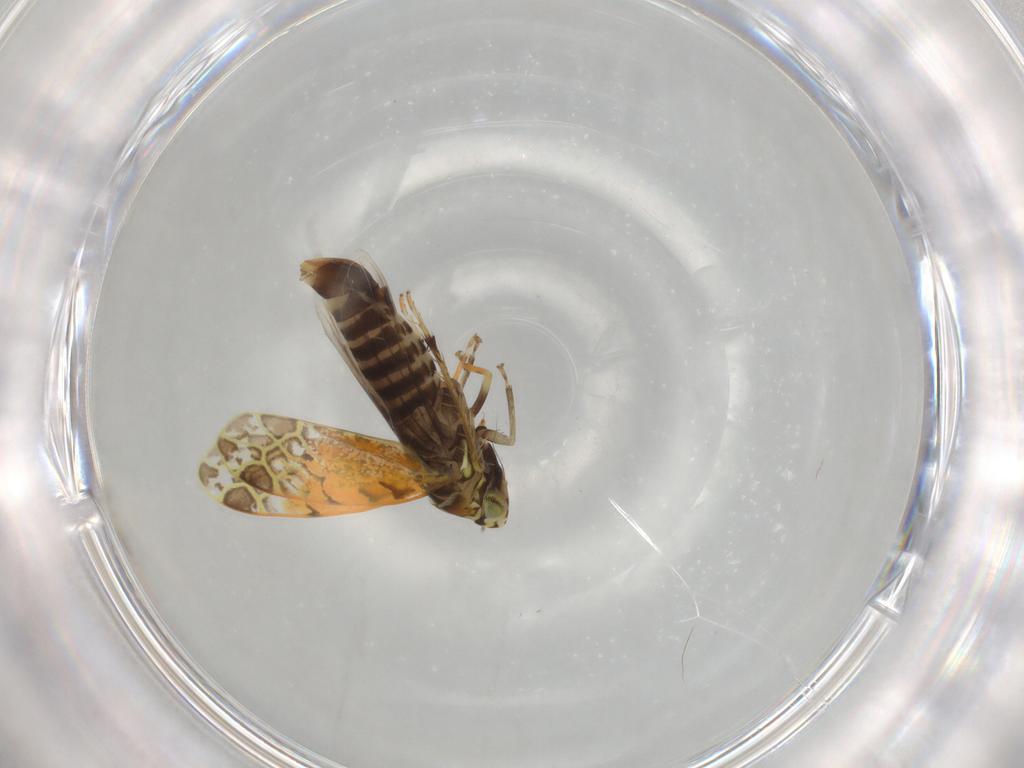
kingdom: Animalia
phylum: Arthropoda
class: Insecta
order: Hemiptera
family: Cicadellidae
